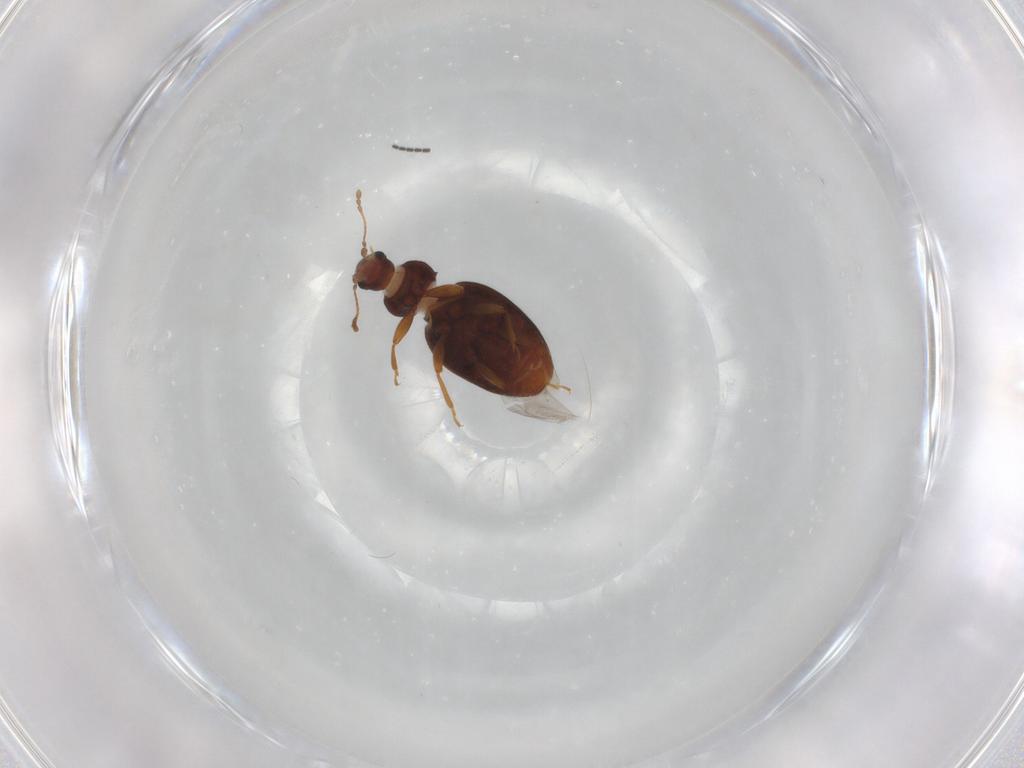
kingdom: Animalia
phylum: Arthropoda
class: Insecta
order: Coleoptera
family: Latridiidae
